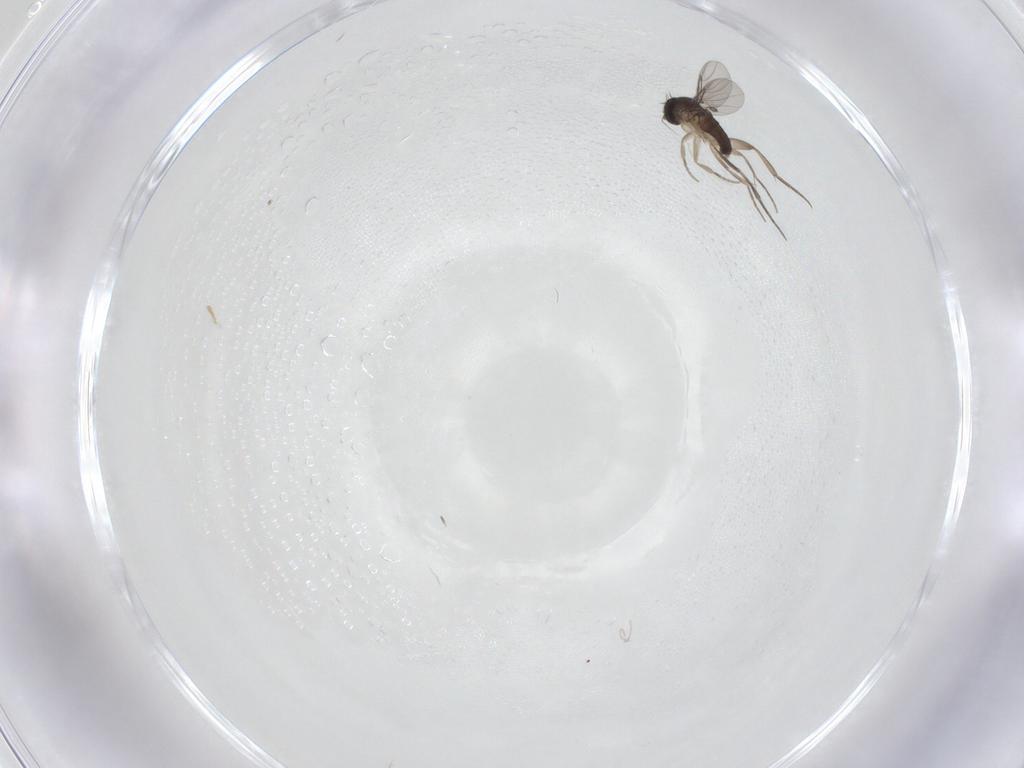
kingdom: Animalia
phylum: Arthropoda
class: Insecta
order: Diptera
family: Phoridae
